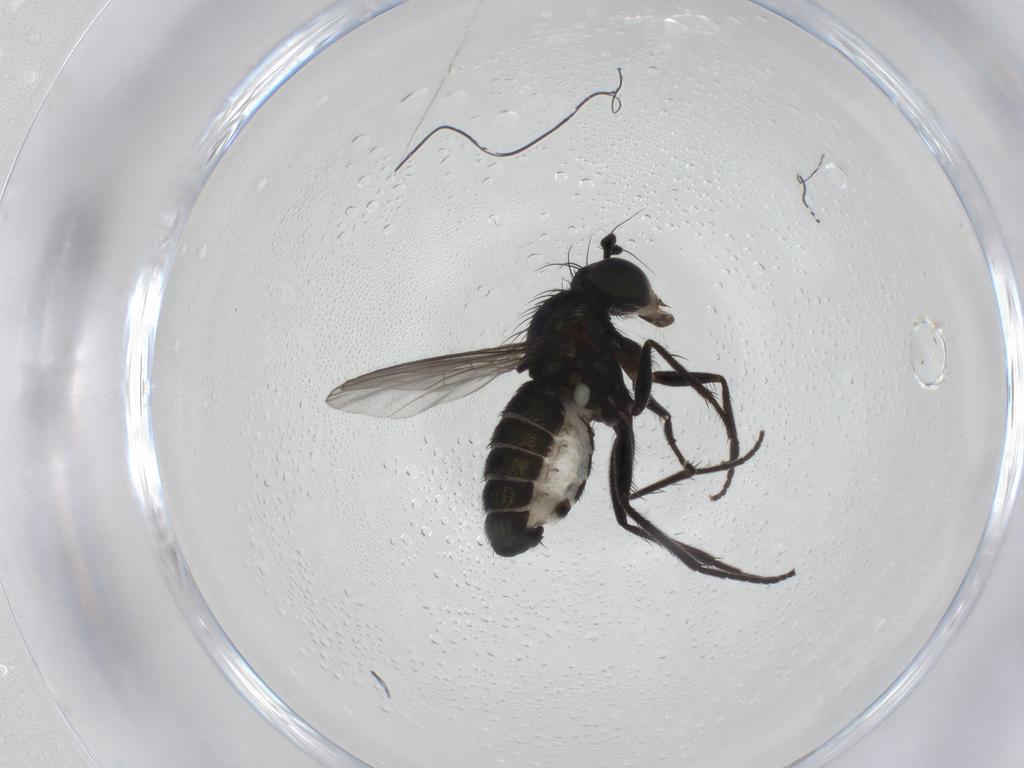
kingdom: Animalia
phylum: Arthropoda
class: Insecta
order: Diptera
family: Dolichopodidae
